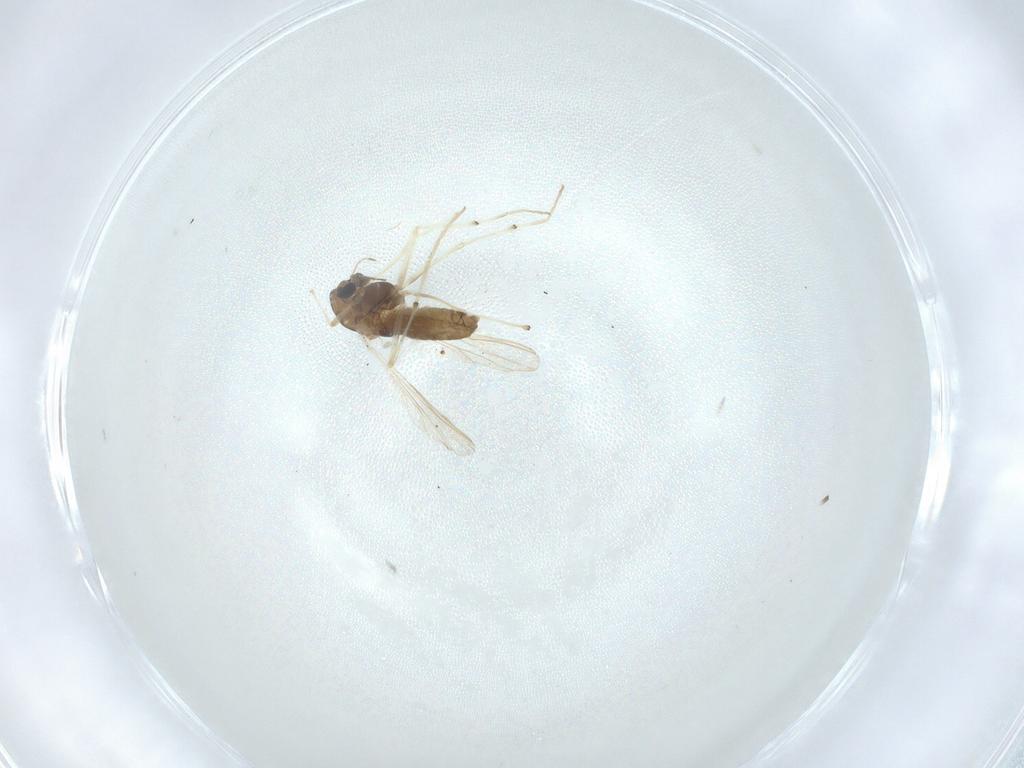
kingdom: Animalia
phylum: Arthropoda
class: Insecta
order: Diptera
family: Chironomidae
